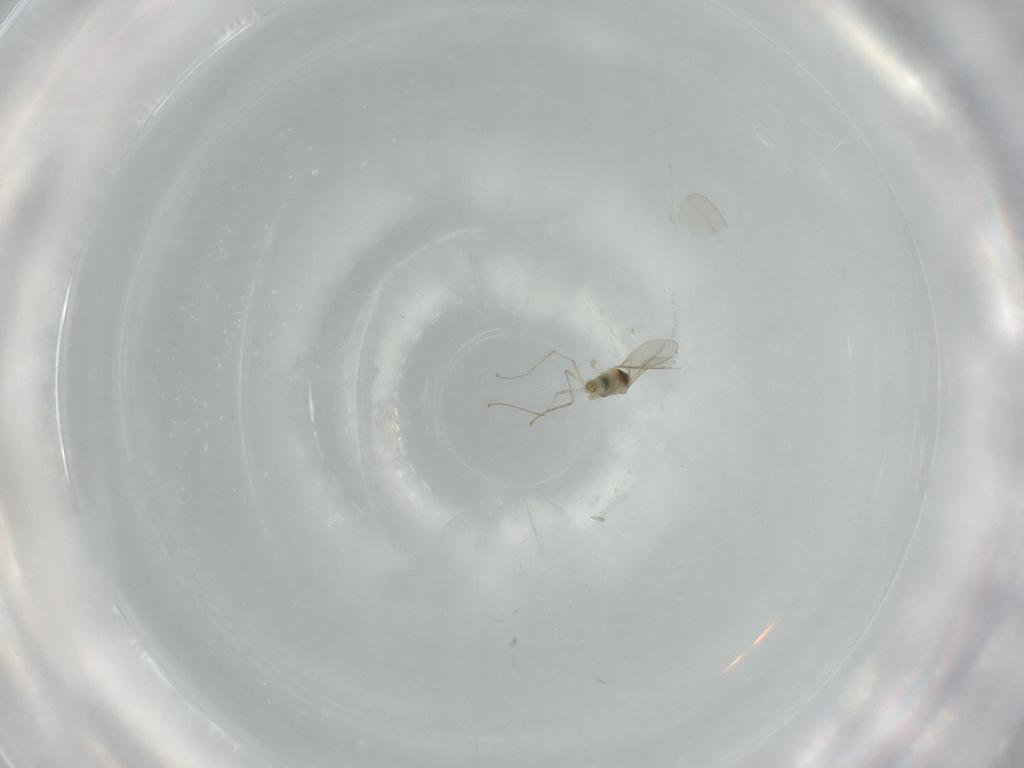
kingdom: Animalia
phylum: Arthropoda
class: Insecta
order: Diptera
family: Cecidomyiidae
